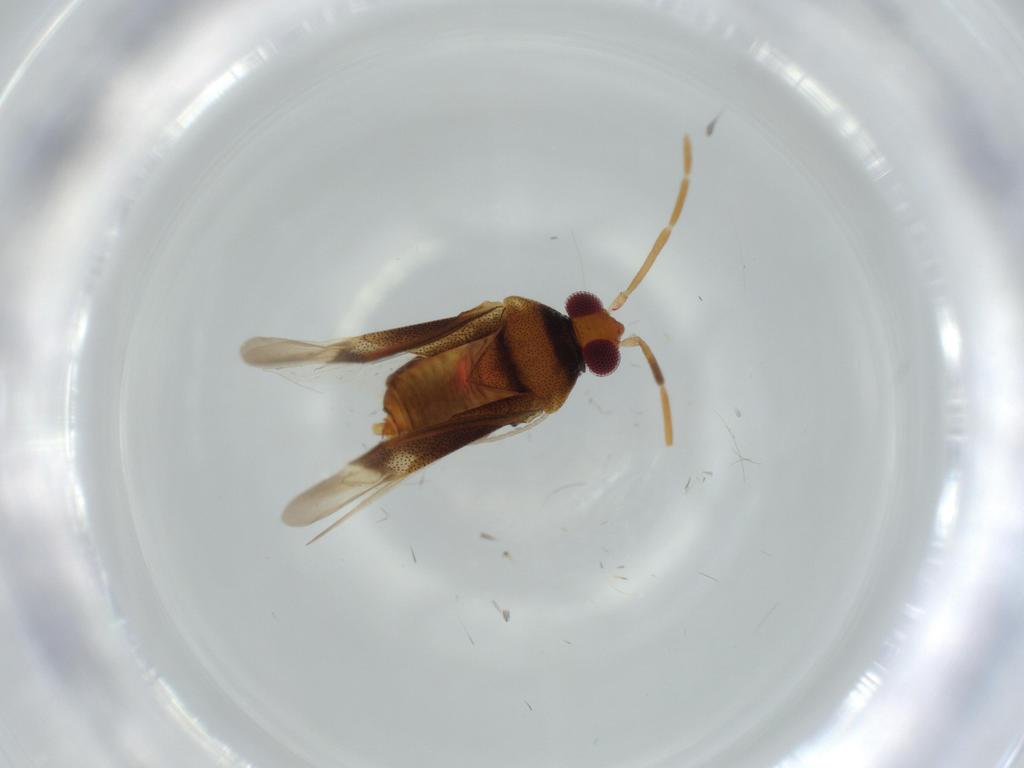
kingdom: Animalia
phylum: Arthropoda
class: Insecta
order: Hemiptera
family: Miridae
